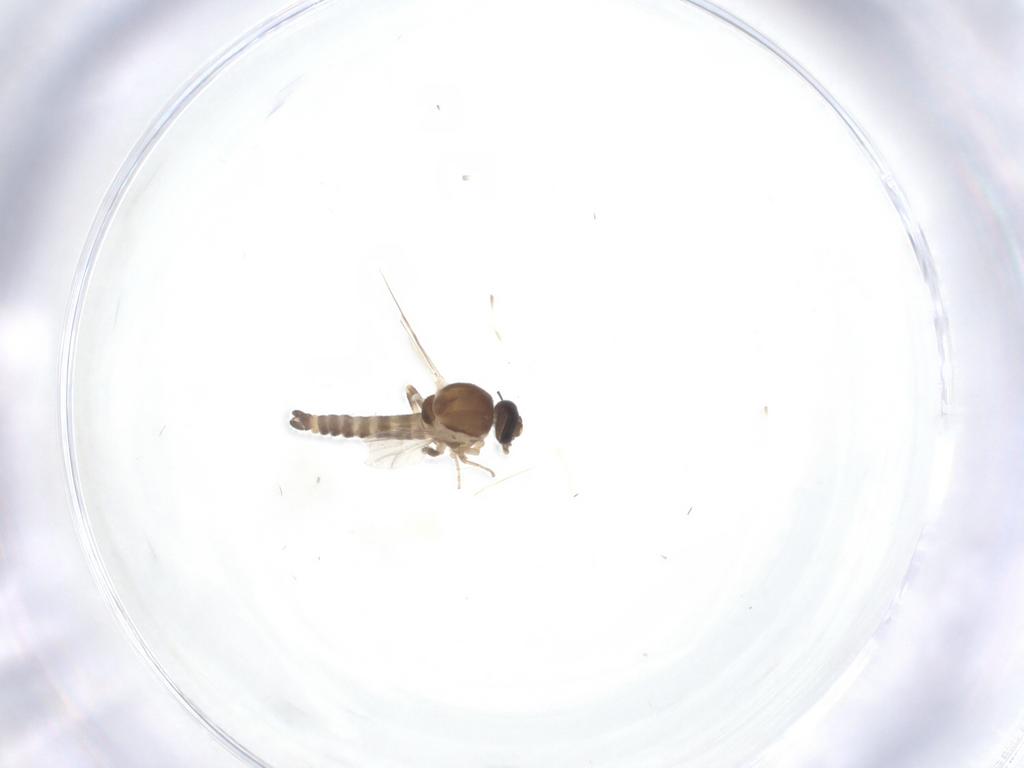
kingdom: Animalia
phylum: Arthropoda
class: Insecta
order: Diptera
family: Ceratopogonidae
